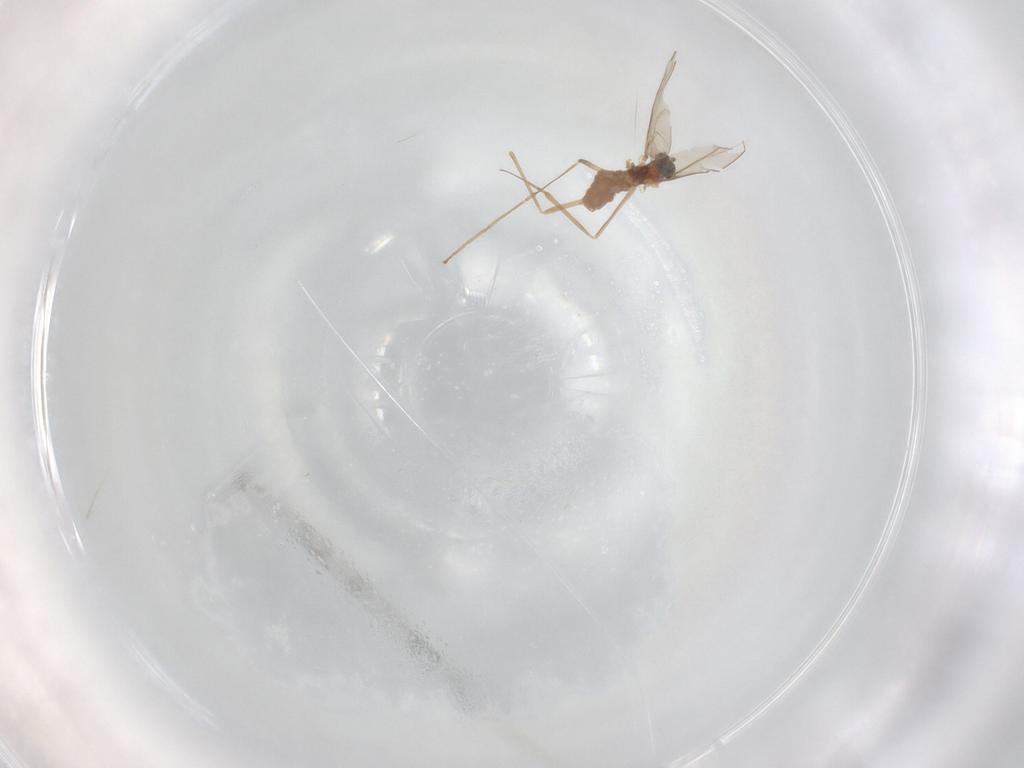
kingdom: Animalia
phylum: Arthropoda
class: Insecta
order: Diptera
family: Cecidomyiidae
